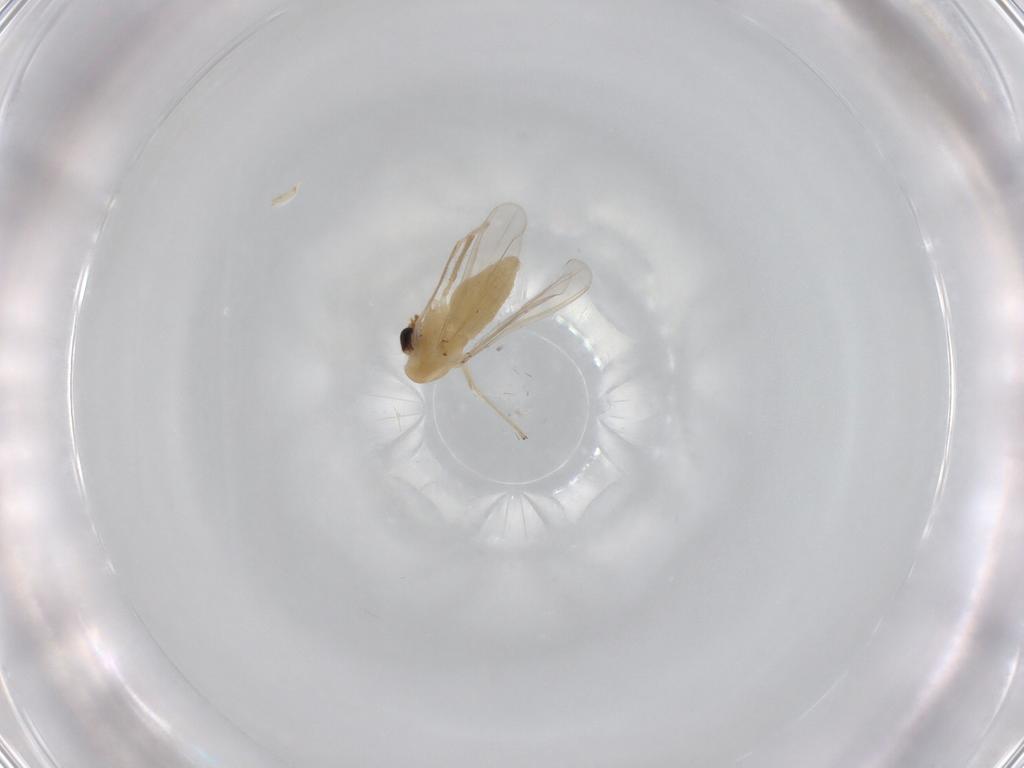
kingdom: Animalia
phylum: Arthropoda
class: Insecta
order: Diptera
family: Chironomidae
